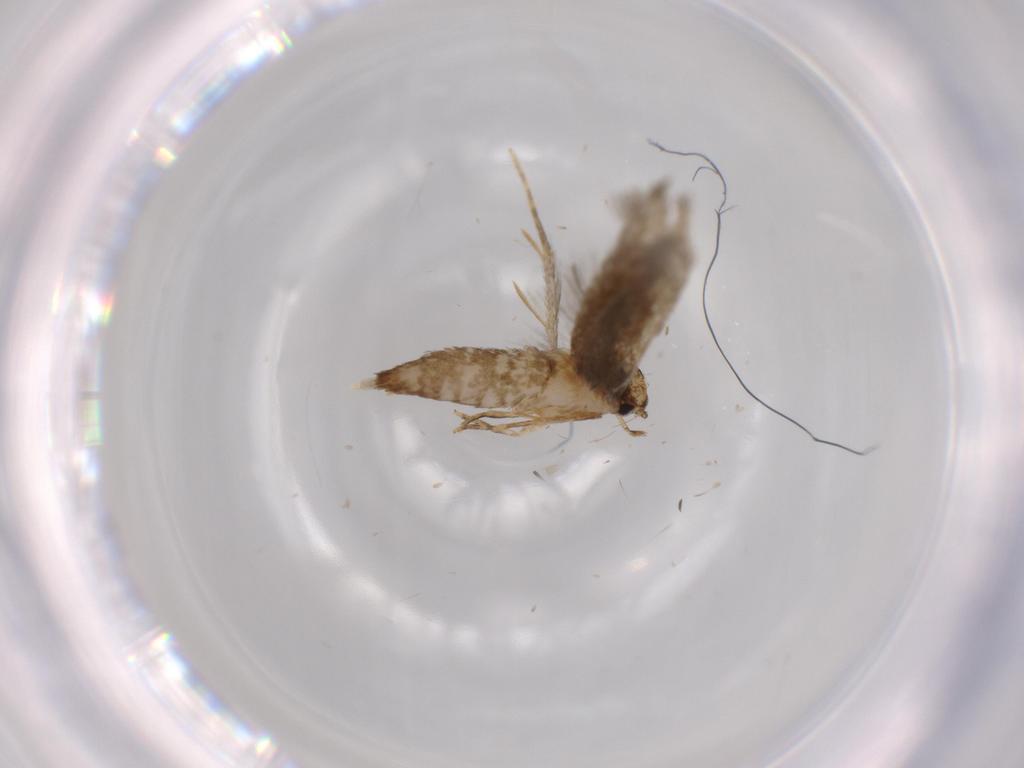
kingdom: Animalia
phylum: Arthropoda
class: Insecta
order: Lepidoptera
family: Tineidae
